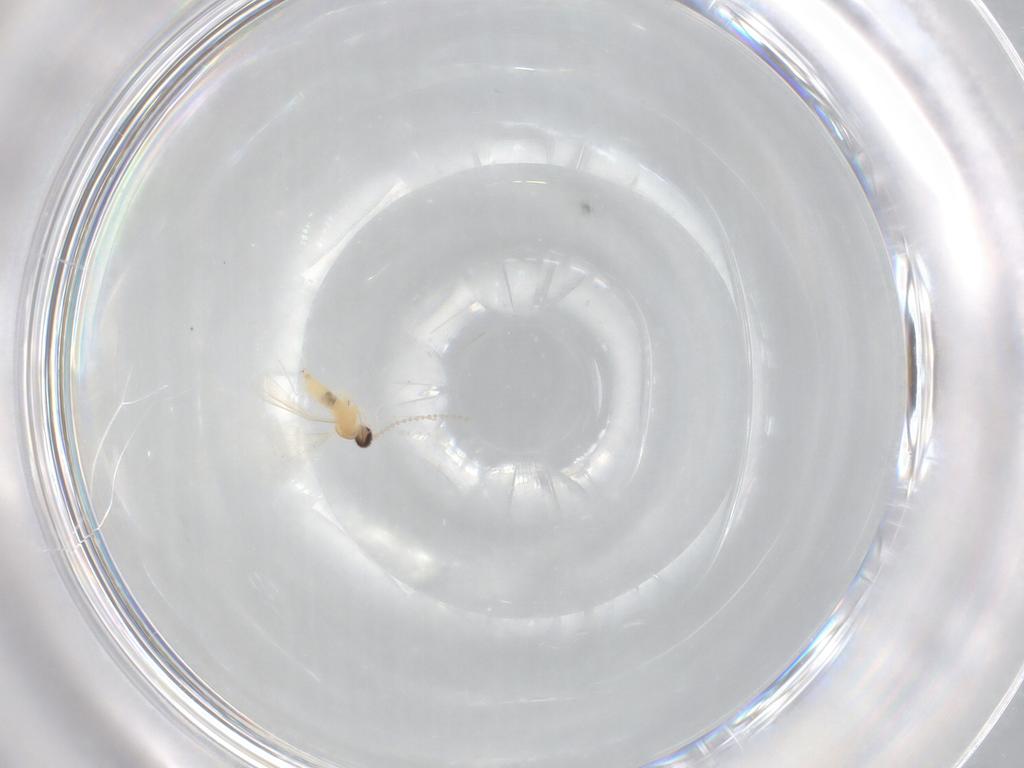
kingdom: Animalia
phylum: Arthropoda
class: Insecta
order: Diptera
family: Cecidomyiidae
